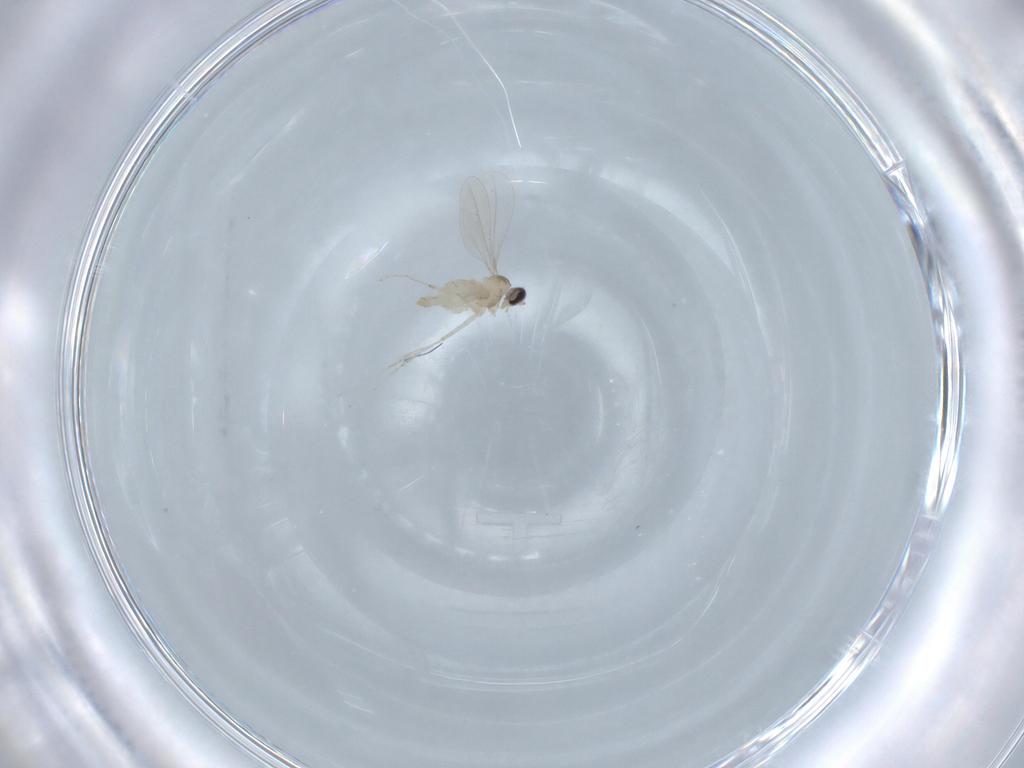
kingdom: Animalia
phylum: Arthropoda
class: Insecta
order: Diptera
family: Cecidomyiidae
